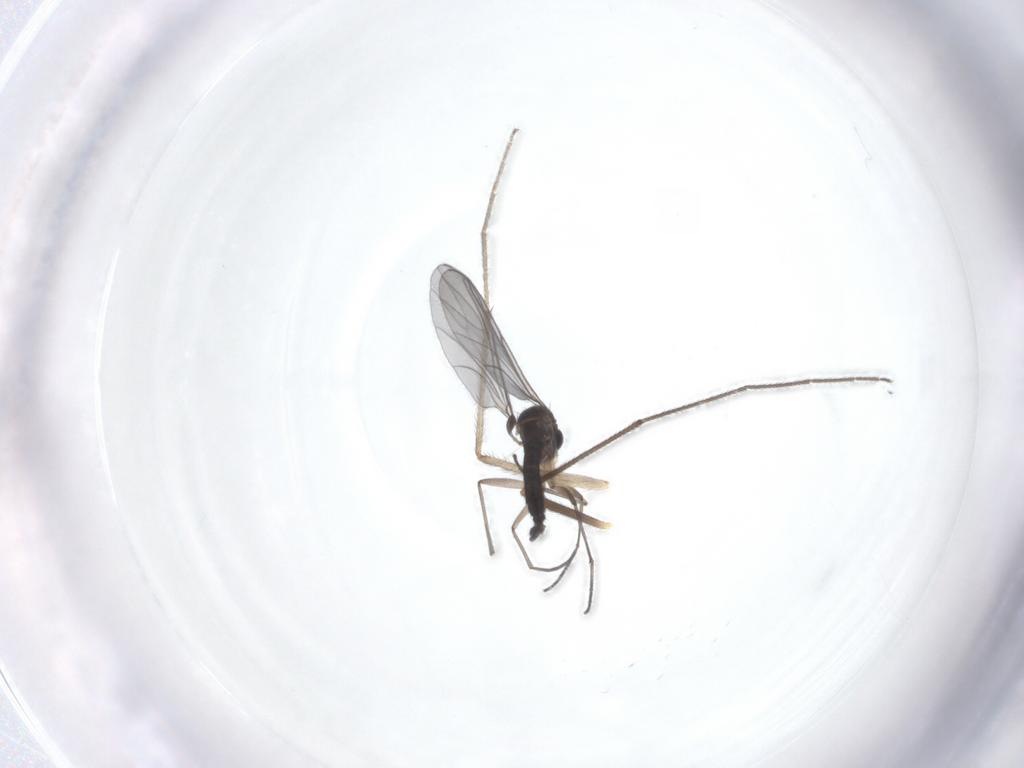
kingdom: Animalia
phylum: Arthropoda
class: Insecta
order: Diptera
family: Sciaridae
